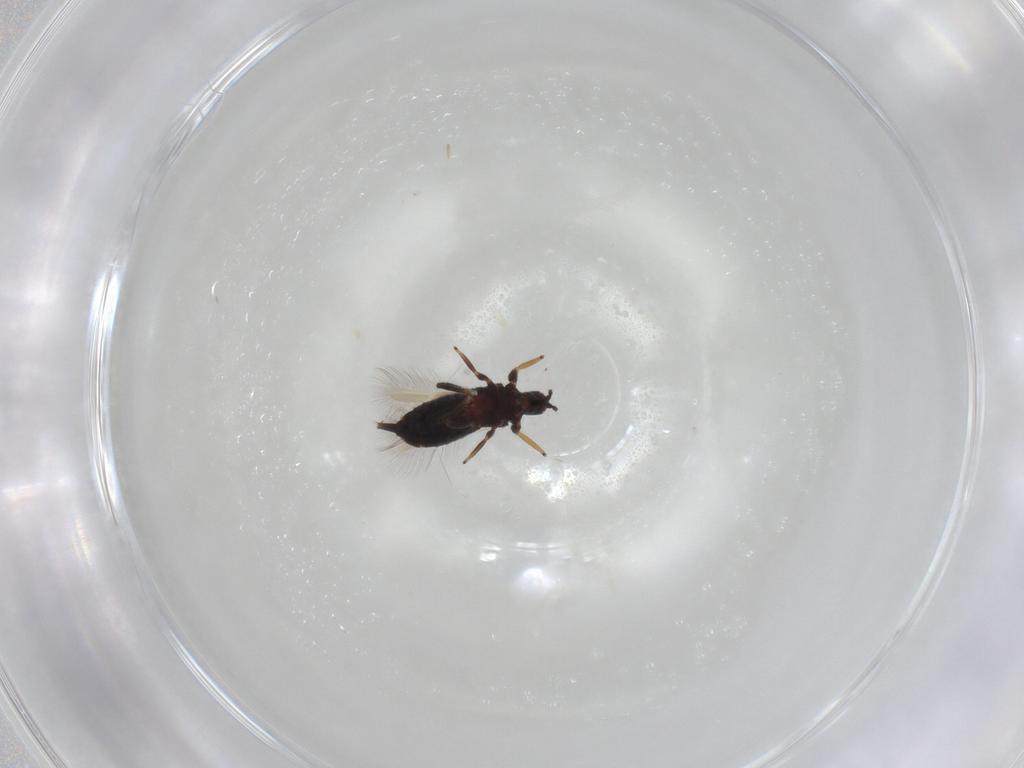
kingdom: Animalia
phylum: Arthropoda
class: Insecta
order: Thysanoptera
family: Phlaeothripidae
